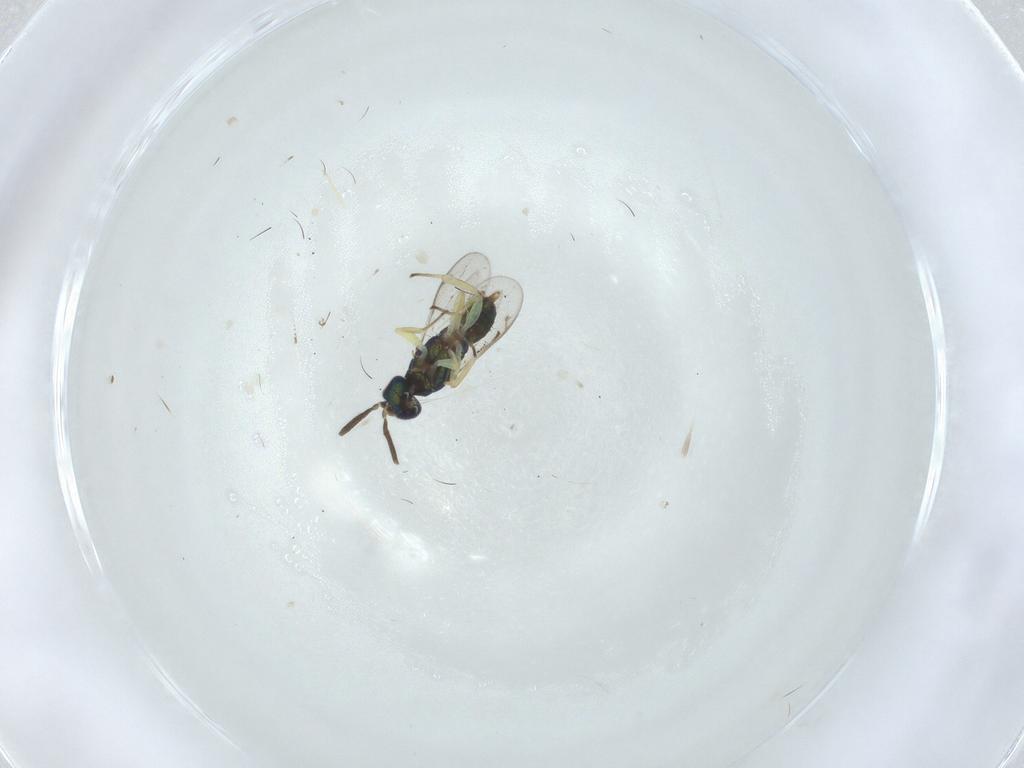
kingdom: Animalia
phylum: Arthropoda
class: Insecta
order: Hymenoptera
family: Eupelmidae
